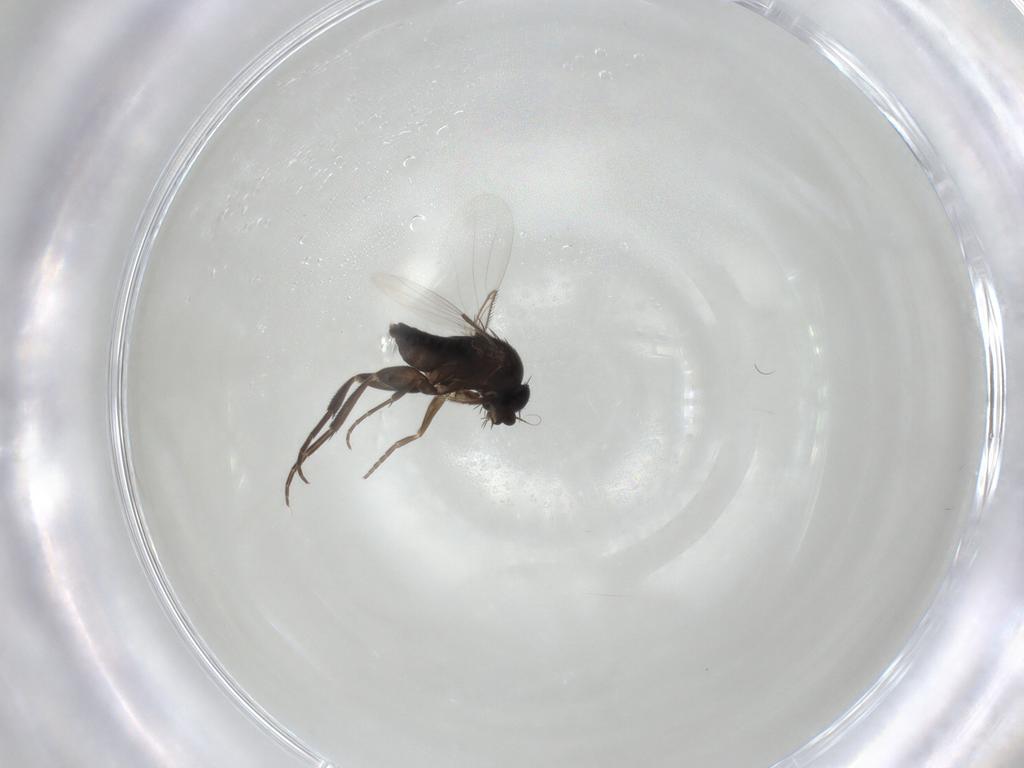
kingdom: Animalia
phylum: Arthropoda
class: Insecta
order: Diptera
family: Phoridae
